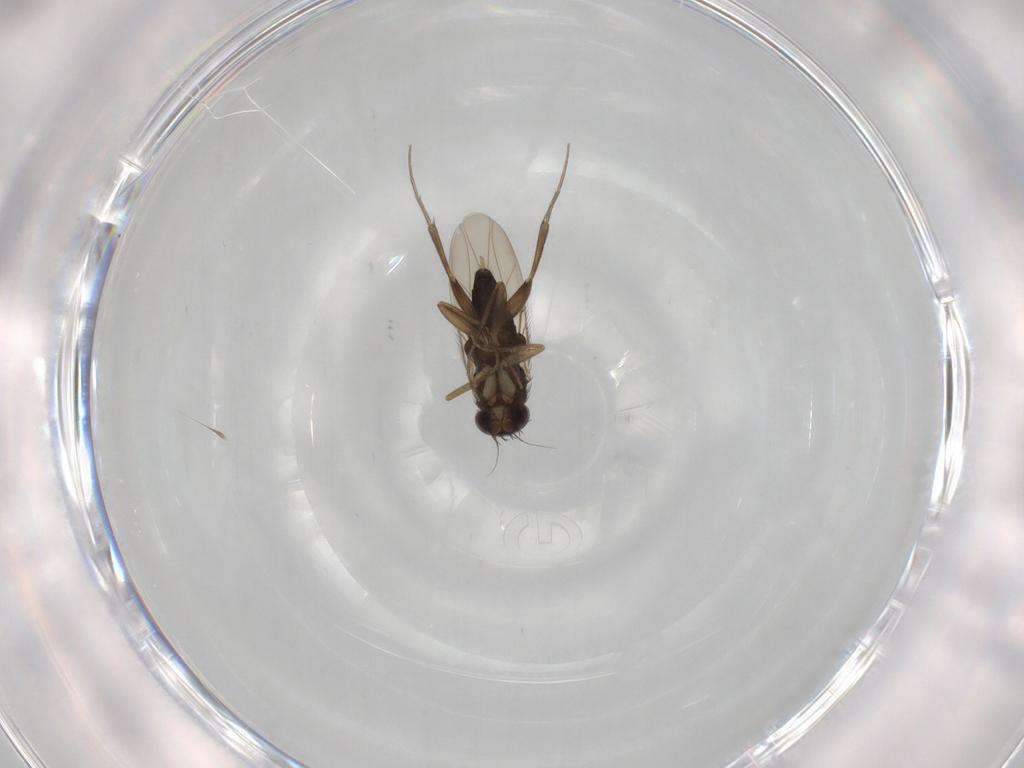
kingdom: Animalia
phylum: Arthropoda
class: Insecta
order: Diptera
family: Phoridae
